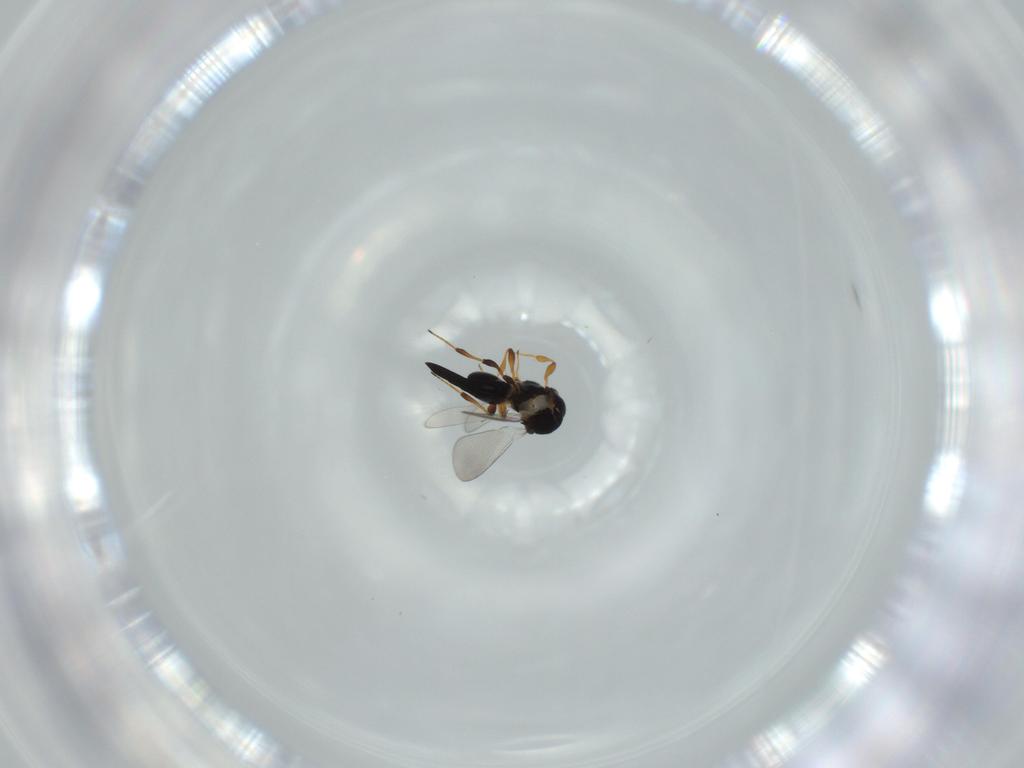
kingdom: Animalia
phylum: Arthropoda
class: Insecta
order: Hymenoptera
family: Platygastridae
